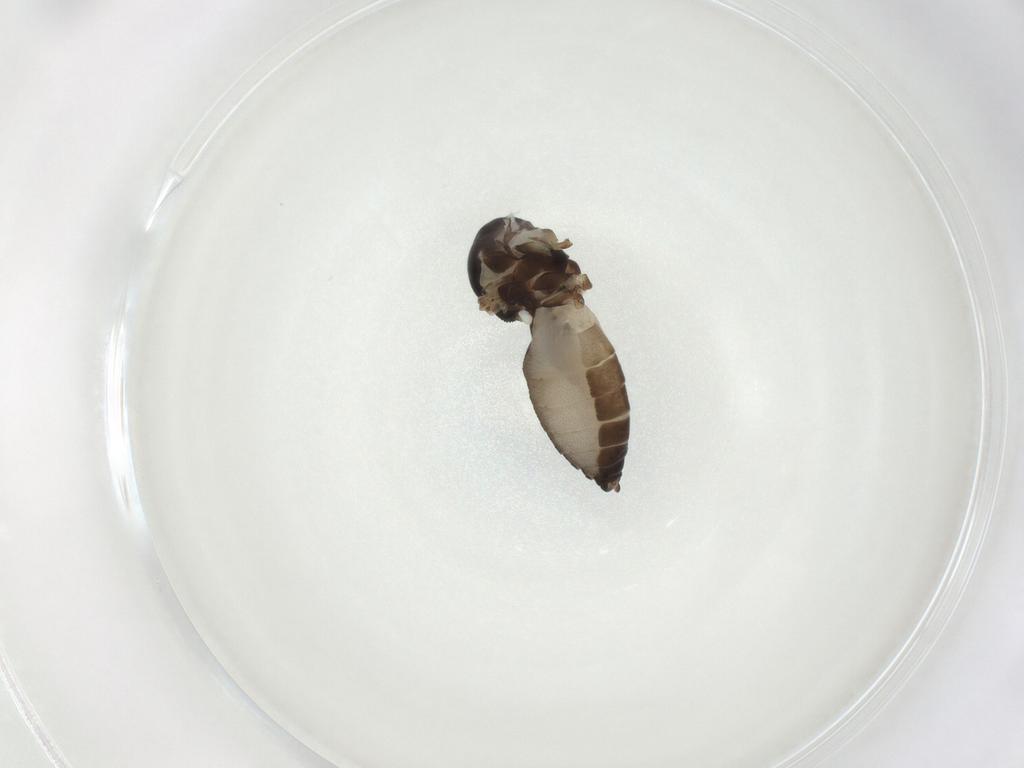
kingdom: Animalia
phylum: Arthropoda
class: Insecta
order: Diptera
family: Ceratopogonidae
